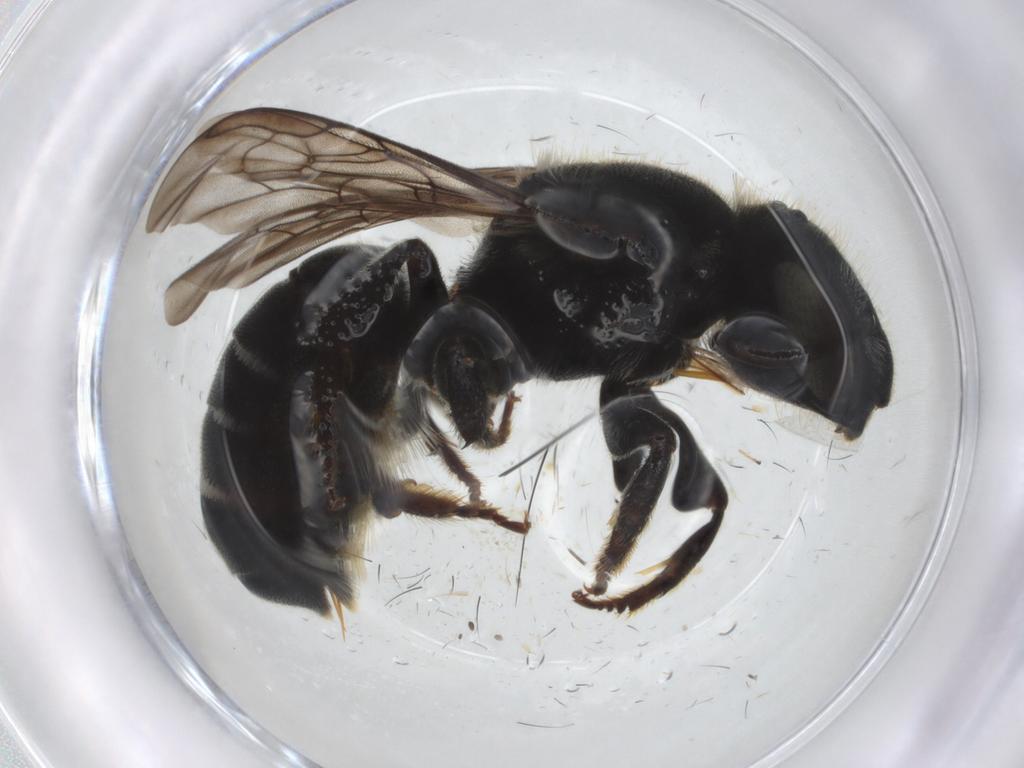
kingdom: Animalia
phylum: Arthropoda
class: Insecta
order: Hymenoptera
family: Megachilidae
